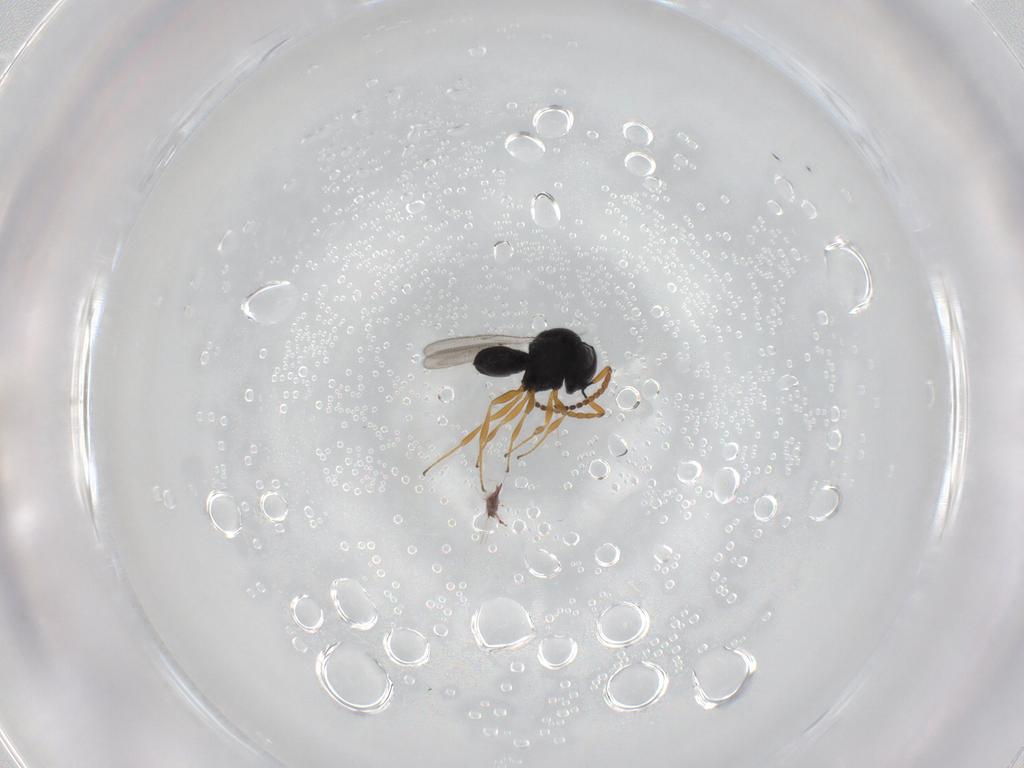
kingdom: Animalia
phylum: Arthropoda
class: Insecta
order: Hymenoptera
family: Scelionidae
